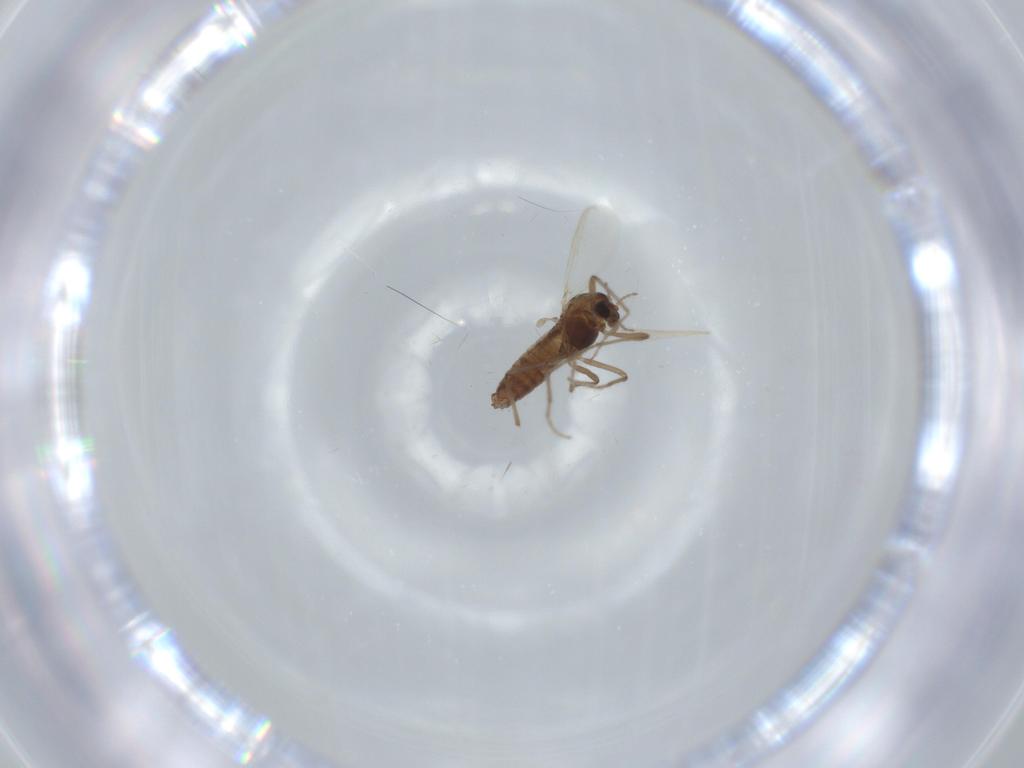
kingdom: Animalia
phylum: Arthropoda
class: Insecta
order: Diptera
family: Chironomidae
